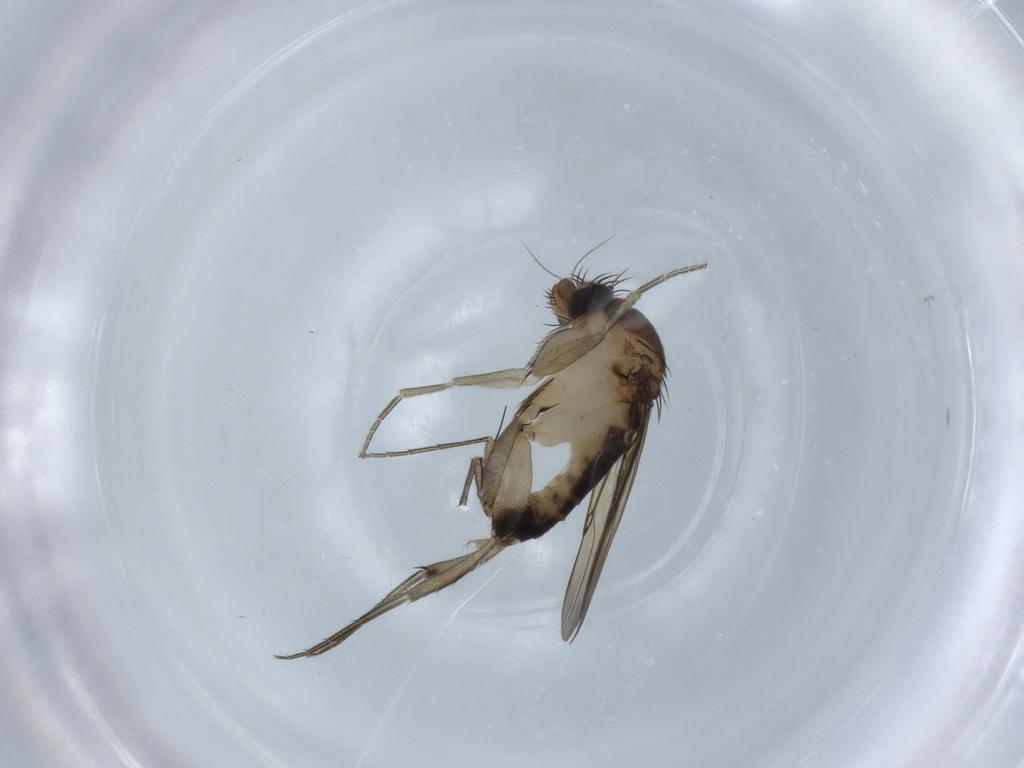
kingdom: Animalia
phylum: Arthropoda
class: Insecta
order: Diptera
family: Phoridae
